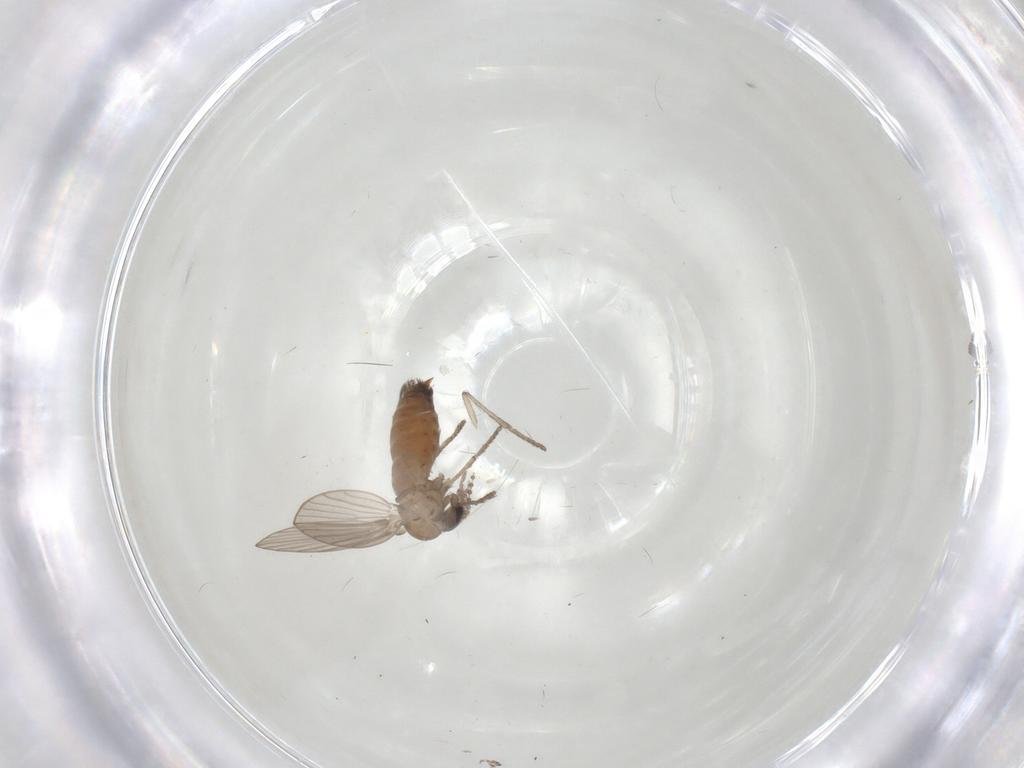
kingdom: Animalia
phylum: Arthropoda
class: Insecta
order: Diptera
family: Psychodidae
